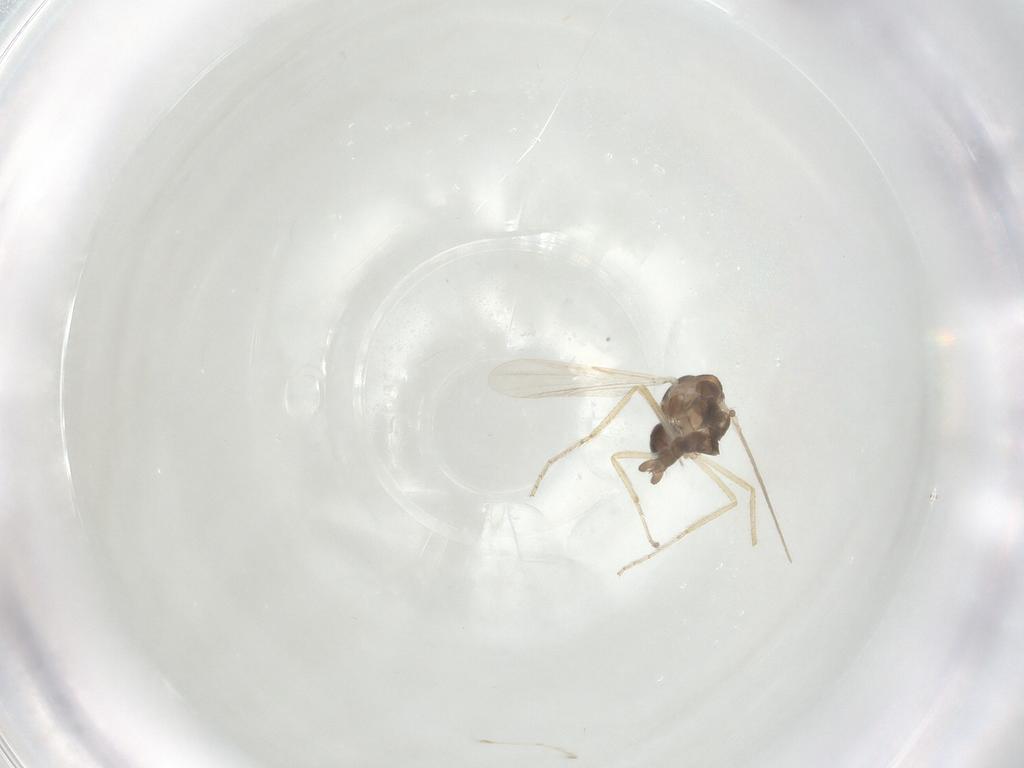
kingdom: Animalia
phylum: Arthropoda
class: Insecta
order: Diptera
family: Ceratopogonidae
